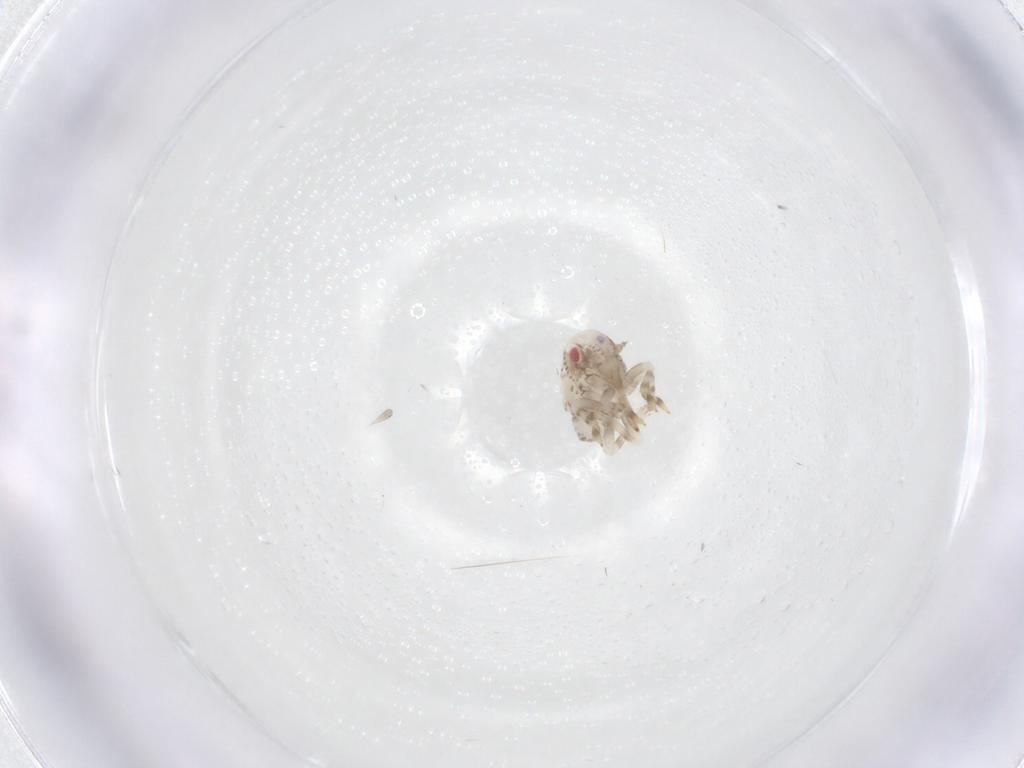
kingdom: Animalia
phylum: Arthropoda
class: Insecta
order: Hemiptera
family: Acanaloniidae
